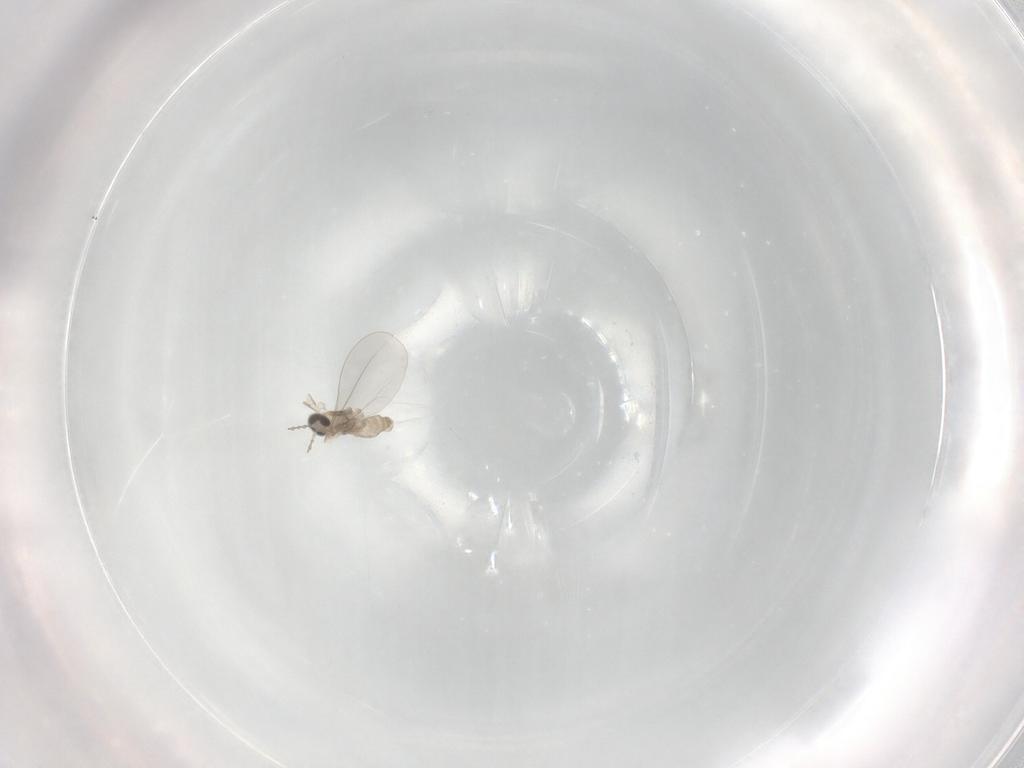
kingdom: Animalia
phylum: Arthropoda
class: Insecta
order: Diptera
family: Cecidomyiidae
